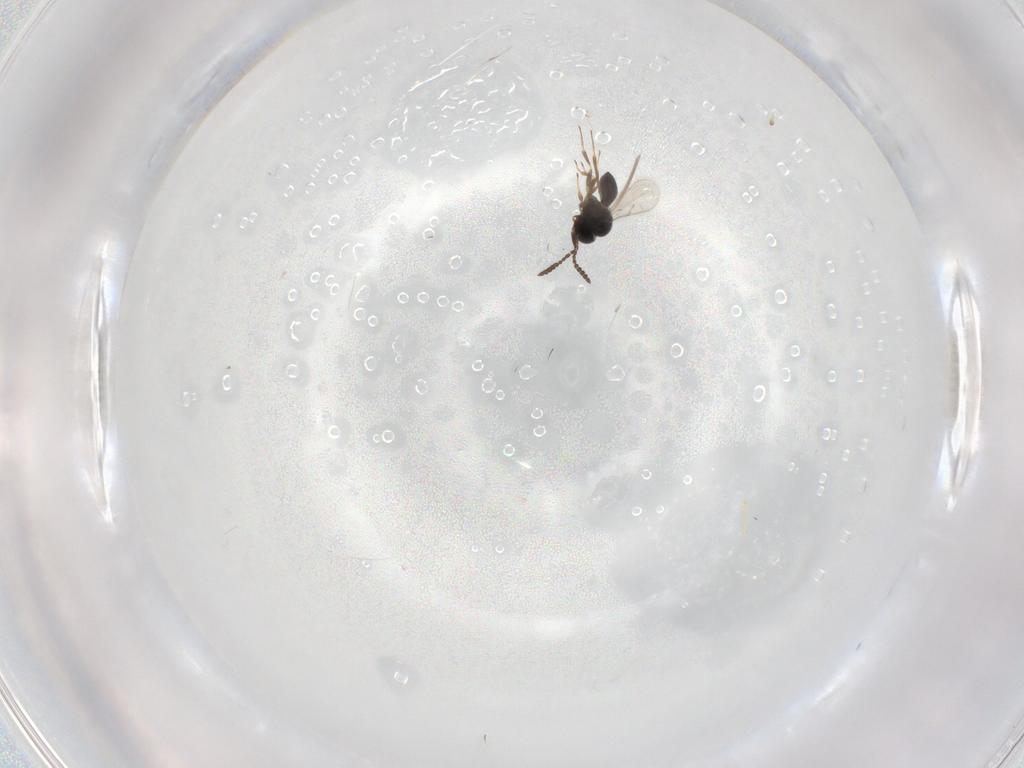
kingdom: Animalia
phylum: Arthropoda
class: Insecta
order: Hymenoptera
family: Scelionidae
